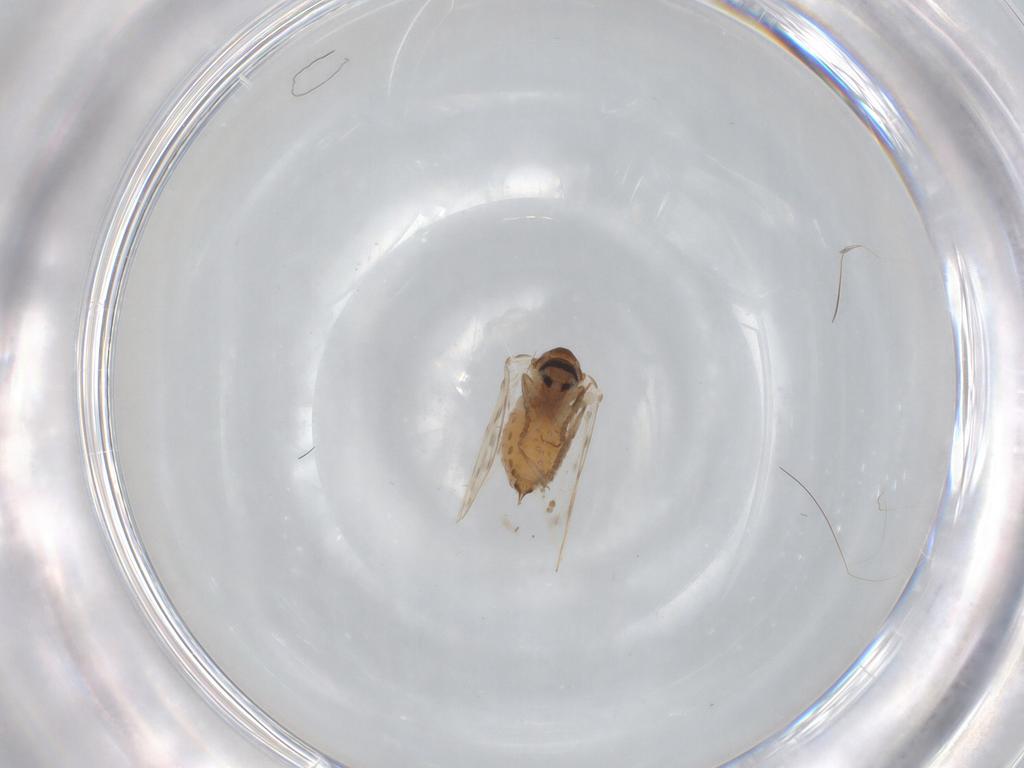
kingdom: Animalia
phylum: Arthropoda
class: Insecta
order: Diptera
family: Psychodidae
